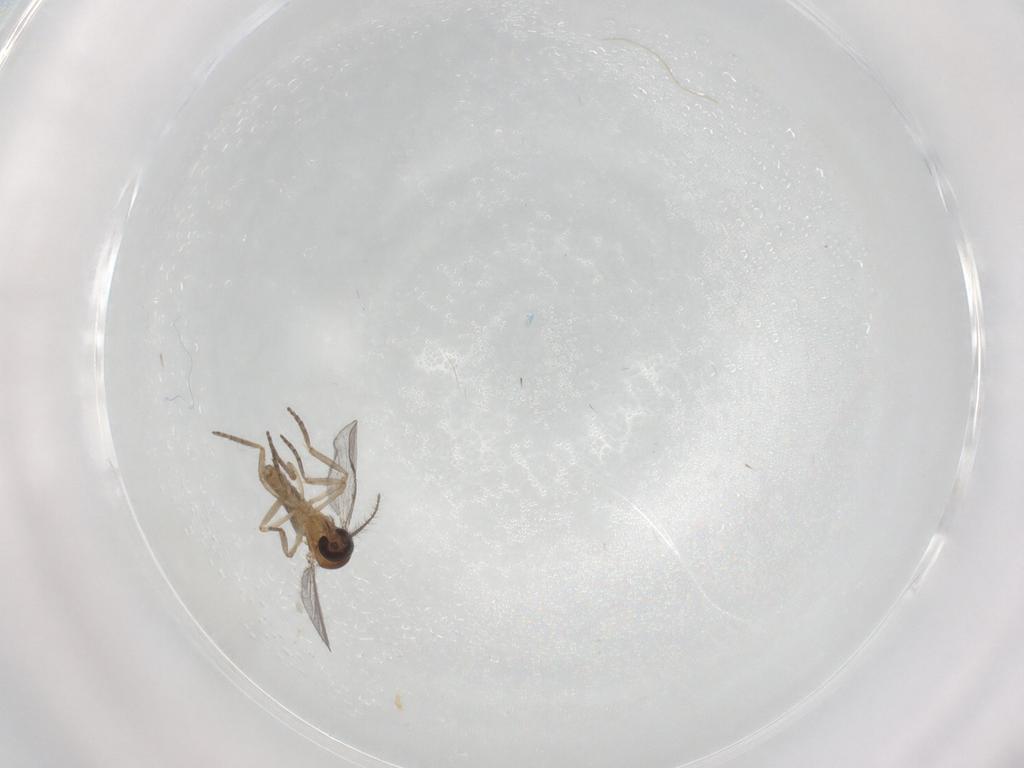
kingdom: Animalia
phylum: Arthropoda
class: Insecta
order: Diptera
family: Ceratopogonidae
